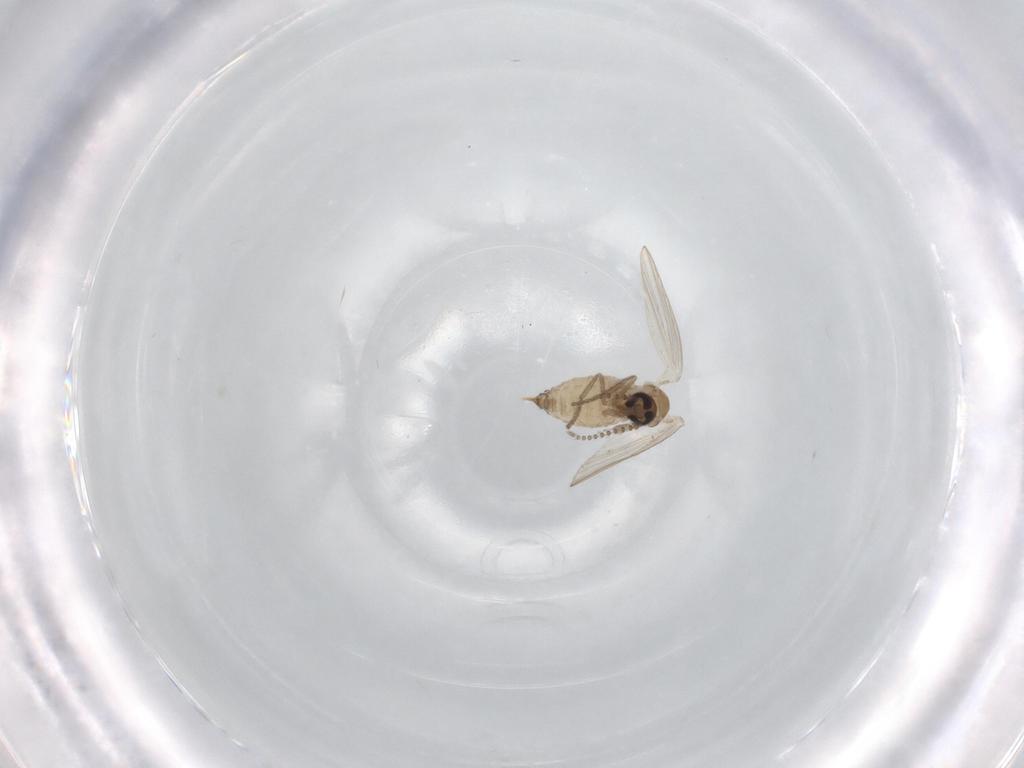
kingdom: Animalia
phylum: Arthropoda
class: Insecta
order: Diptera
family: Psychodidae
